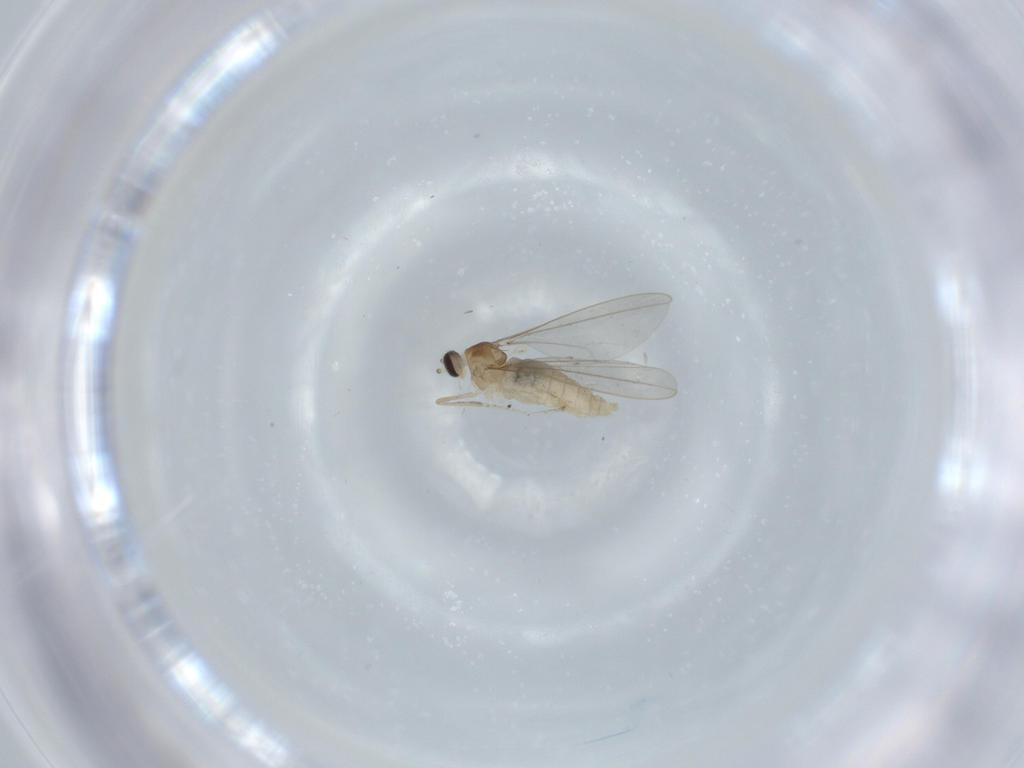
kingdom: Animalia
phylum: Arthropoda
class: Insecta
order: Diptera
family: Cecidomyiidae
